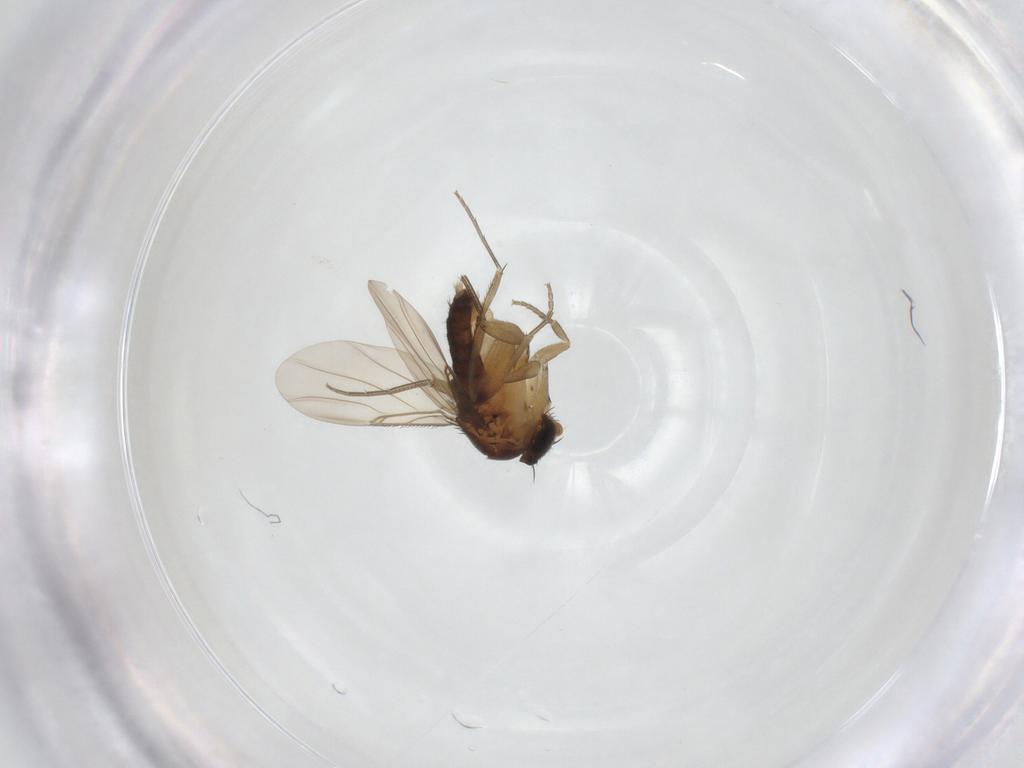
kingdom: Animalia
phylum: Arthropoda
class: Insecta
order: Diptera
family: Phoridae
